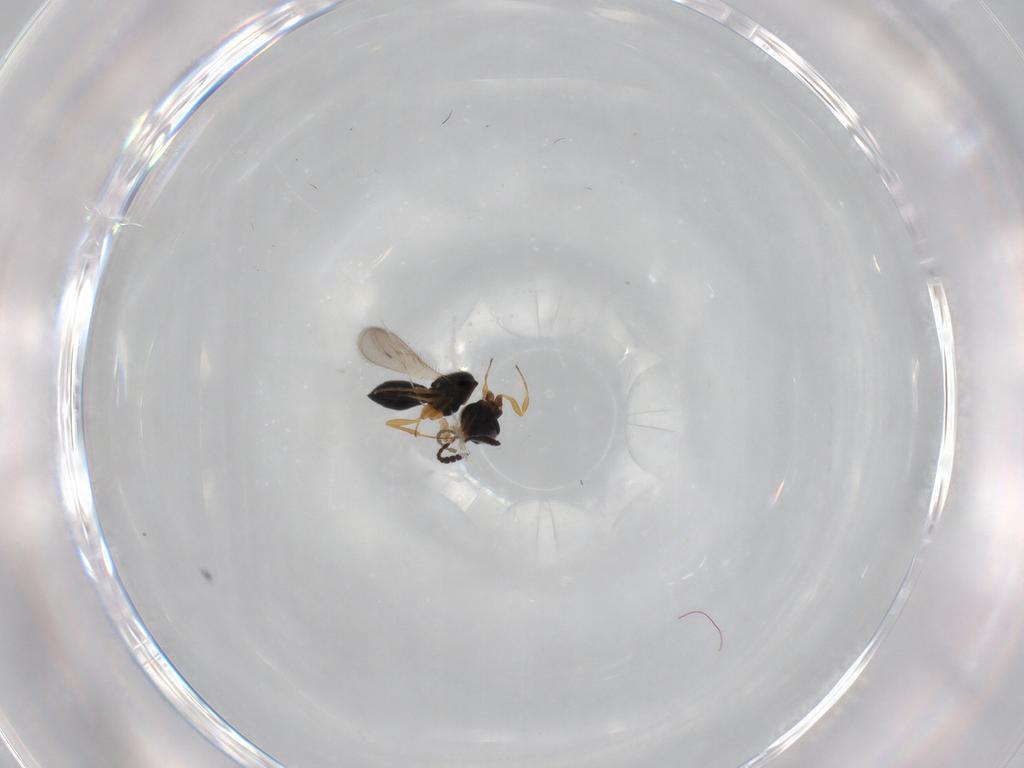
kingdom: Animalia
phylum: Arthropoda
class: Insecta
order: Hymenoptera
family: Scelionidae
